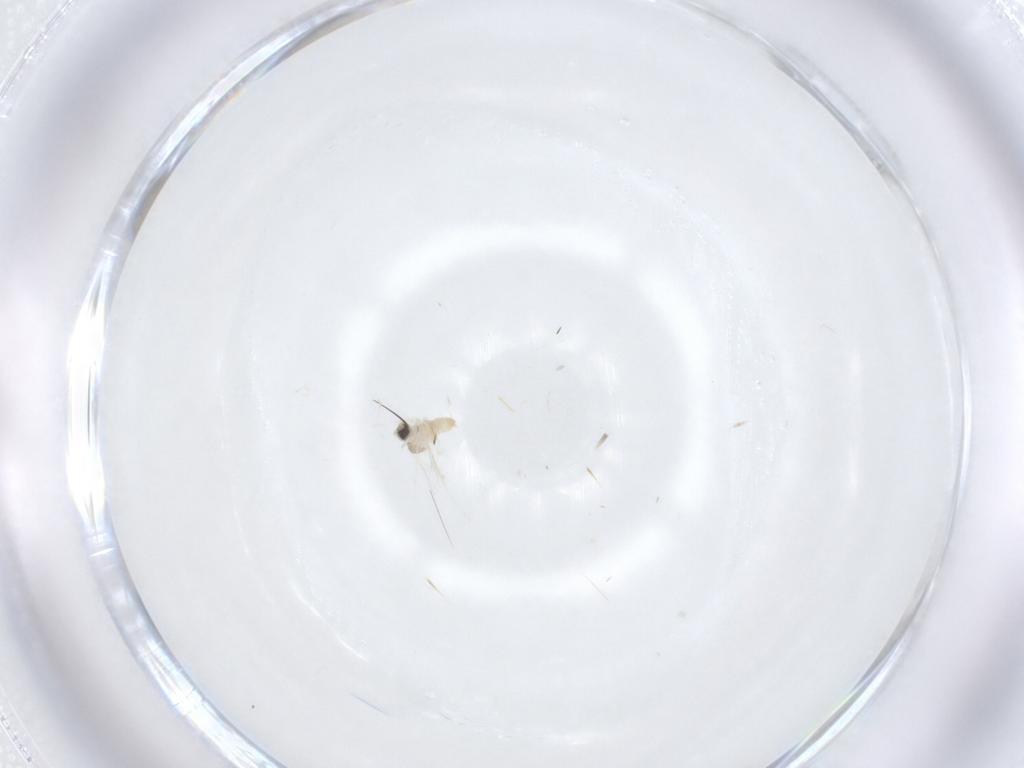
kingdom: Animalia
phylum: Arthropoda
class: Insecta
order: Diptera
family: Cecidomyiidae
